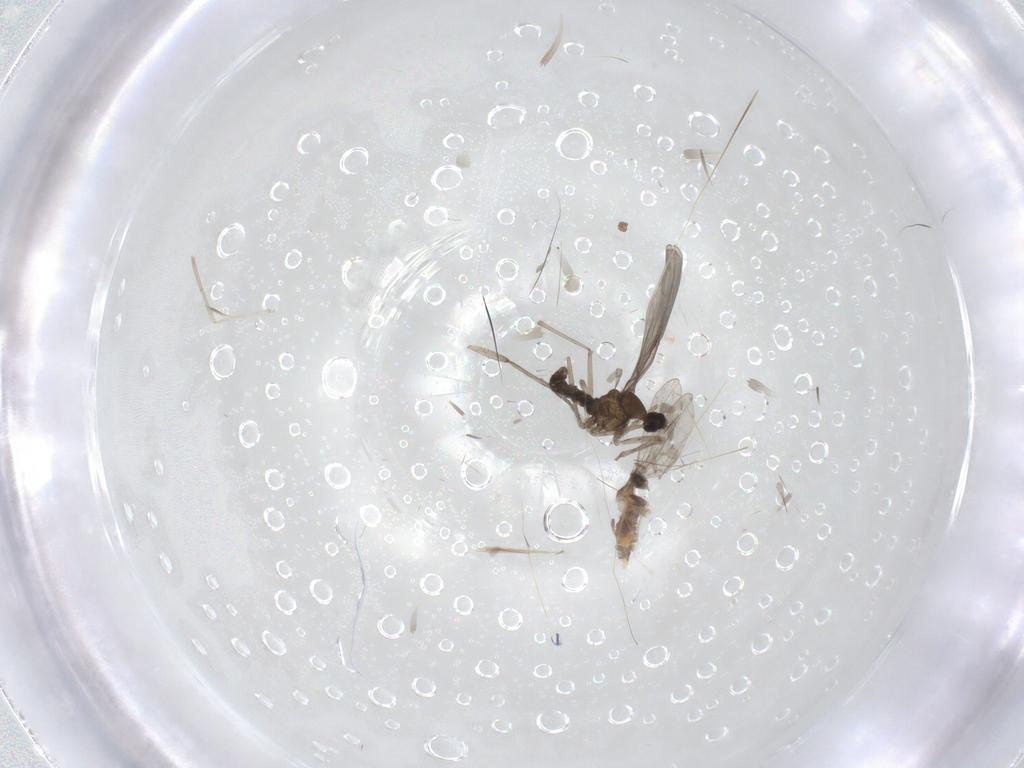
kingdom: Animalia
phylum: Arthropoda
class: Insecta
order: Diptera
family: Sciaridae
